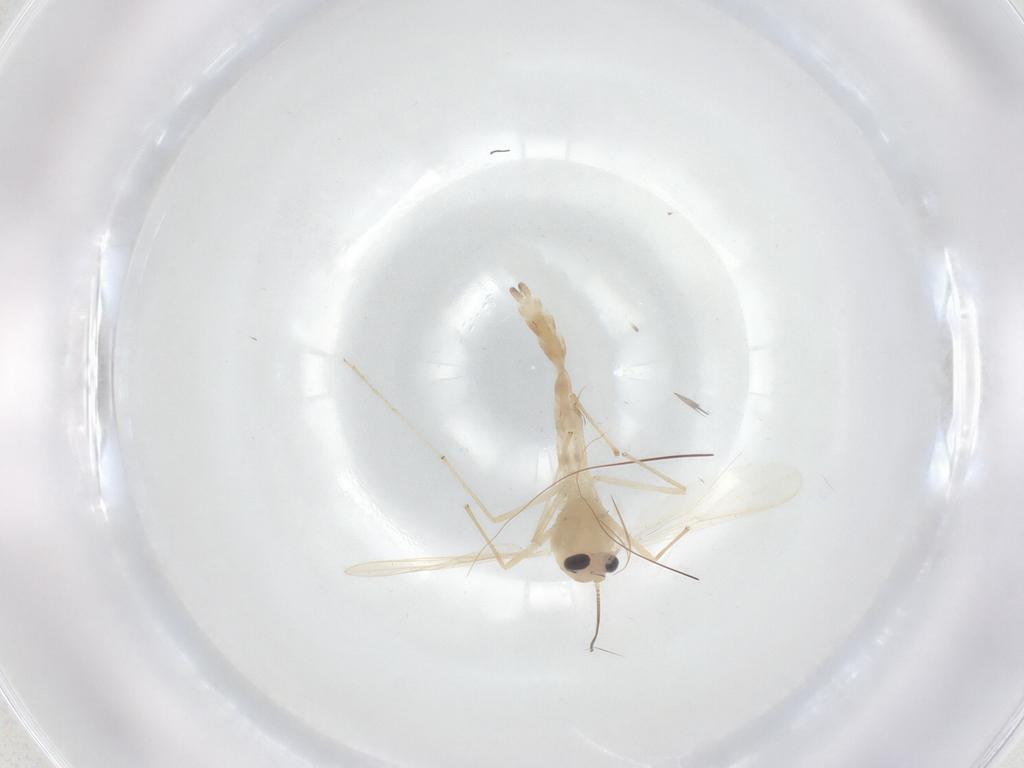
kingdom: Animalia
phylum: Arthropoda
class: Insecta
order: Diptera
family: Chironomidae
